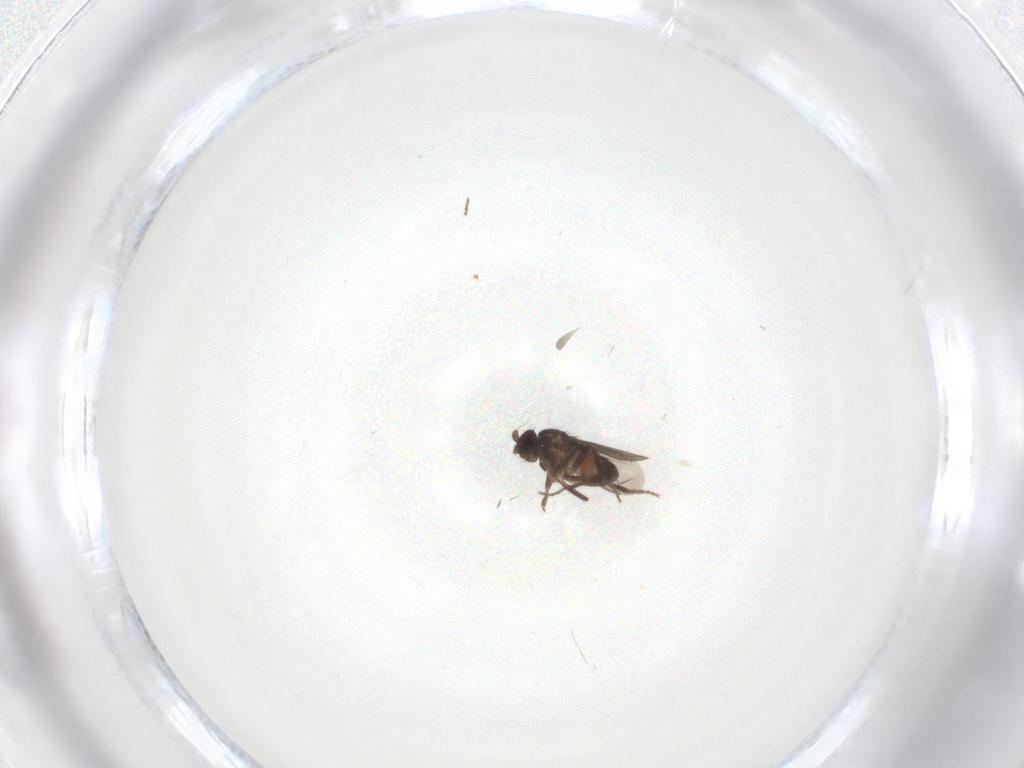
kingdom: Animalia
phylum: Arthropoda
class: Insecta
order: Diptera
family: Sphaeroceridae
